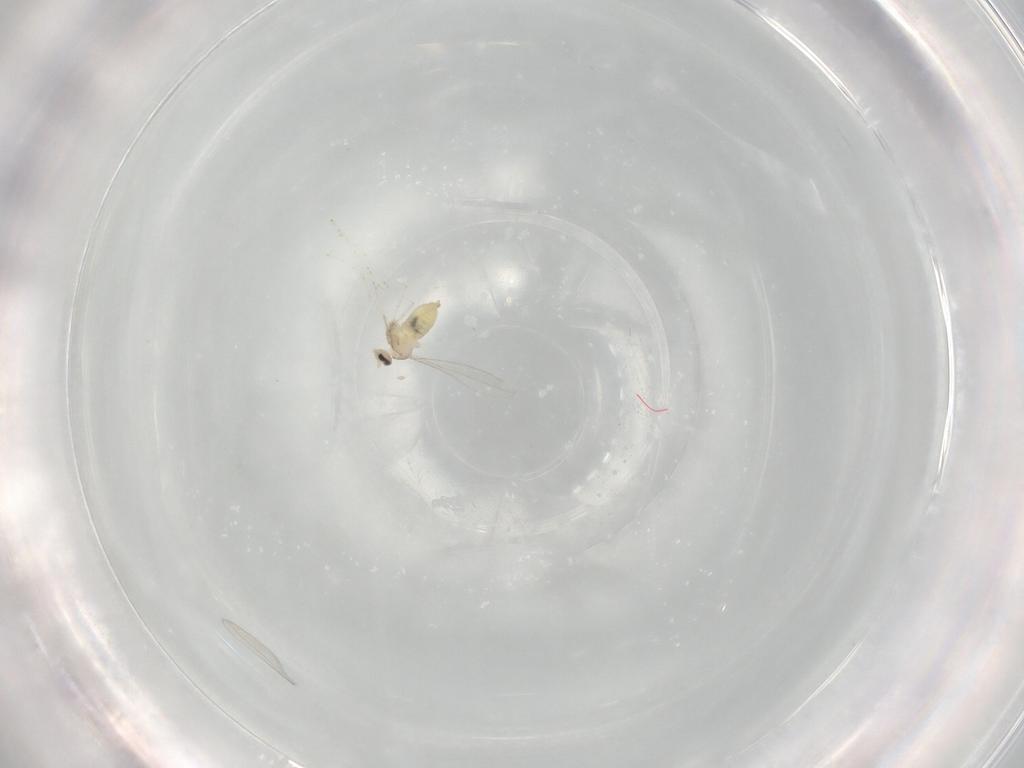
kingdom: Animalia
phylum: Arthropoda
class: Insecta
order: Diptera
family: Cecidomyiidae
